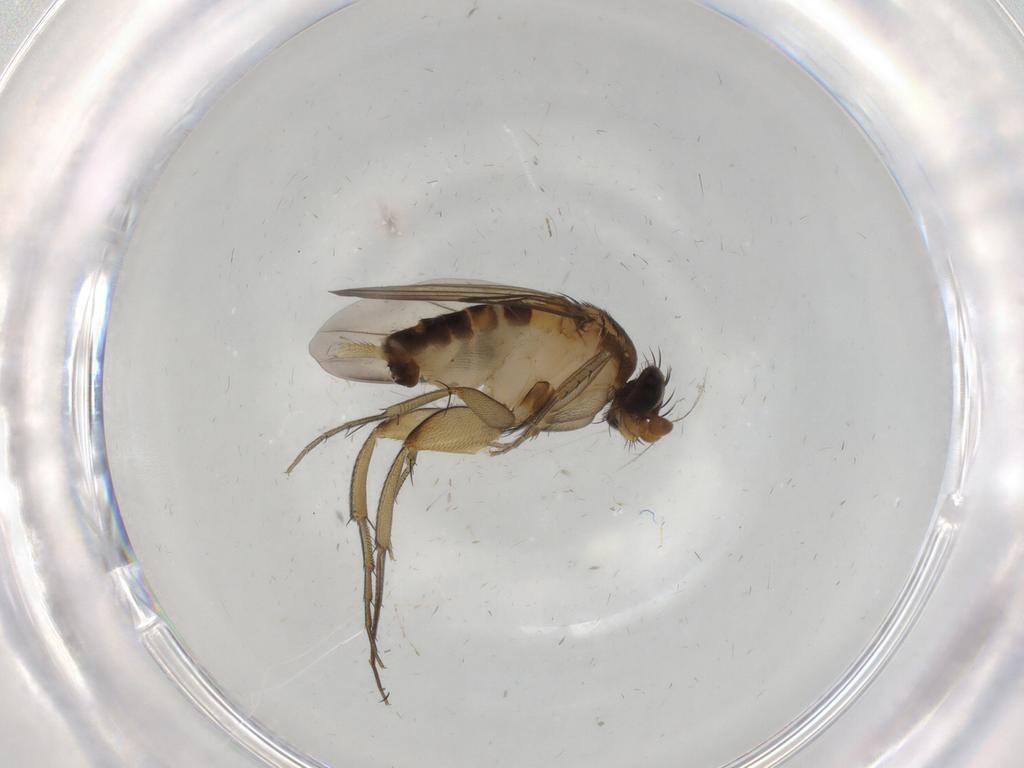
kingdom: Animalia
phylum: Arthropoda
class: Insecta
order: Diptera
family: Phoridae
